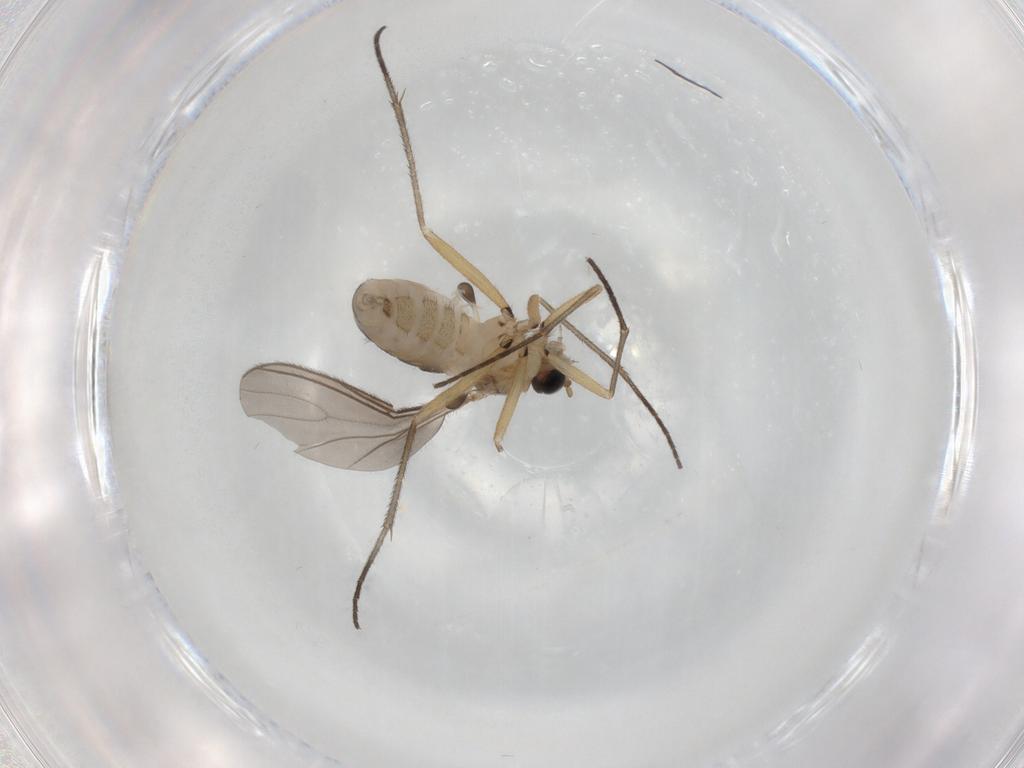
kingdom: Animalia
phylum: Arthropoda
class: Insecta
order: Diptera
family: Sciaridae
